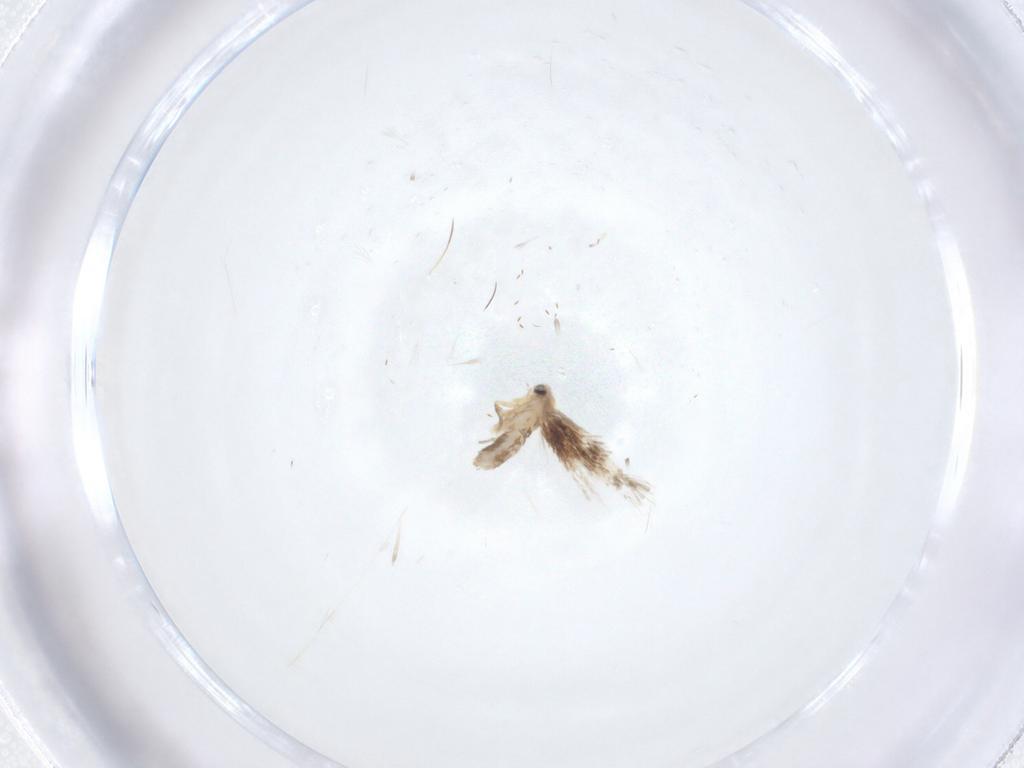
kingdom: Animalia
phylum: Arthropoda
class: Insecta
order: Lepidoptera
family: Nepticulidae
